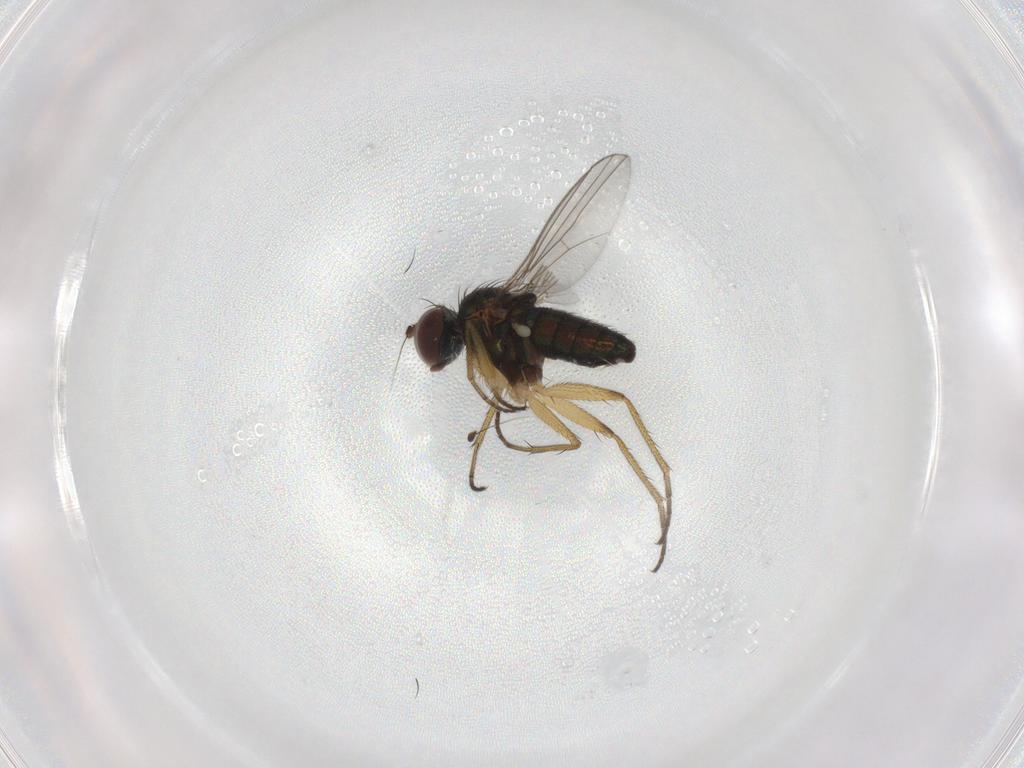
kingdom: Animalia
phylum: Arthropoda
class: Insecta
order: Diptera
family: Dolichopodidae
